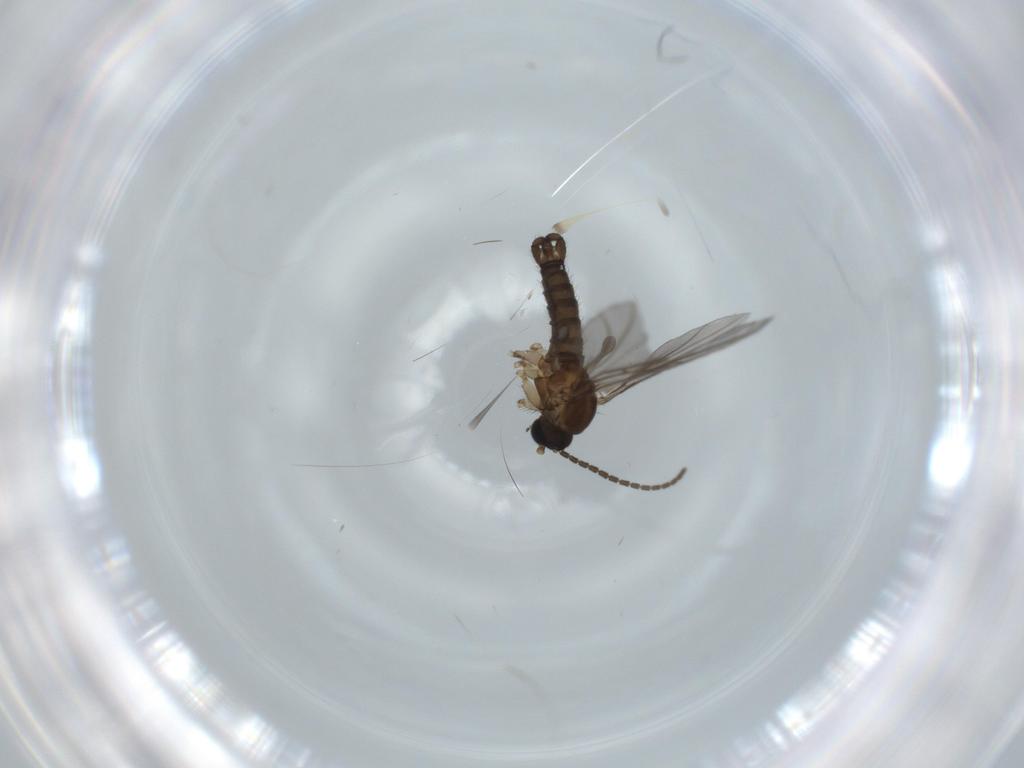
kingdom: Animalia
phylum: Arthropoda
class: Insecta
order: Diptera
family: Sciaridae
